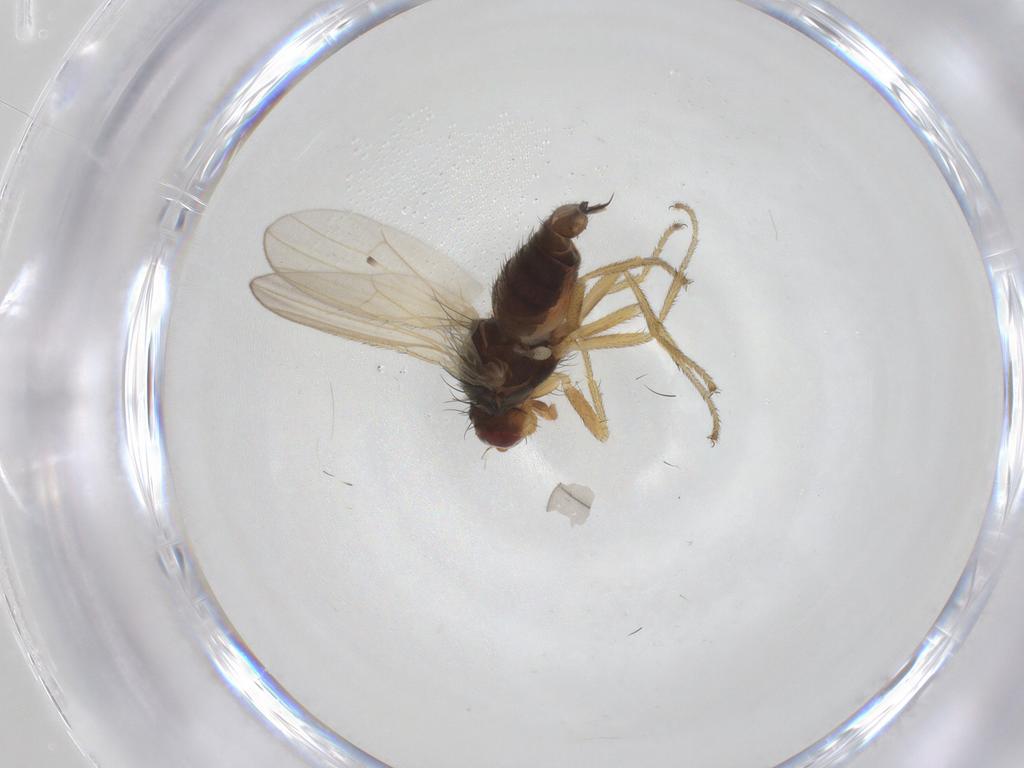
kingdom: Animalia
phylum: Arthropoda
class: Insecta
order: Diptera
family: Heleomyzidae
